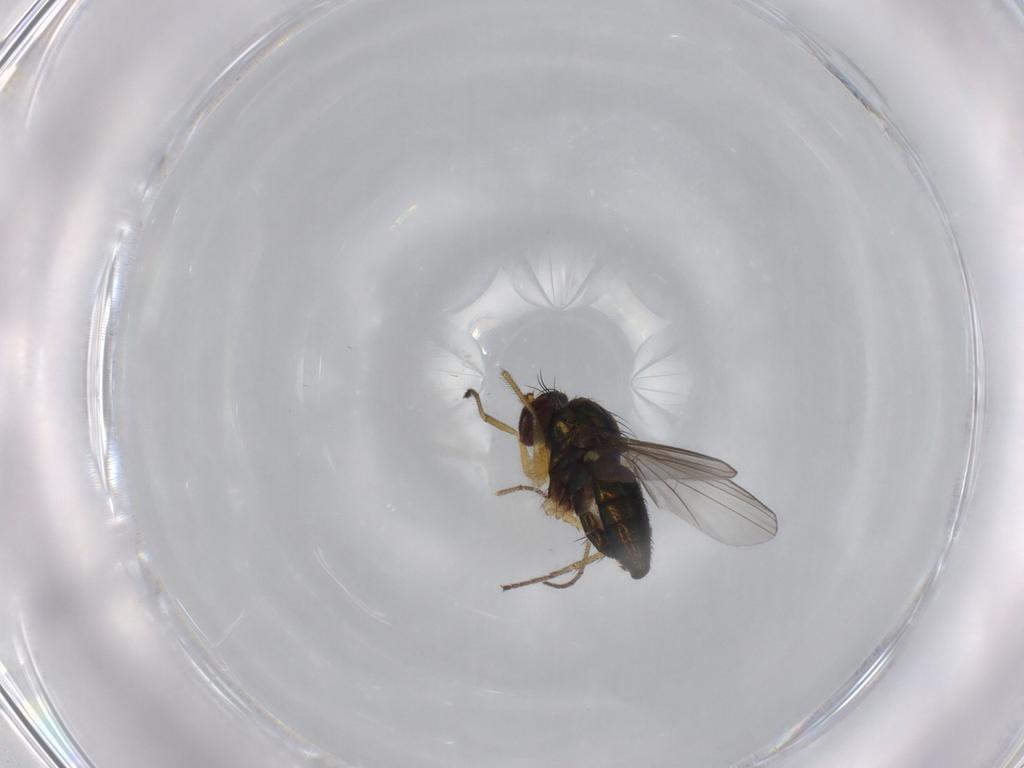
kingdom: Animalia
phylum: Arthropoda
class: Insecta
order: Diptera
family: Dolichopodidae
